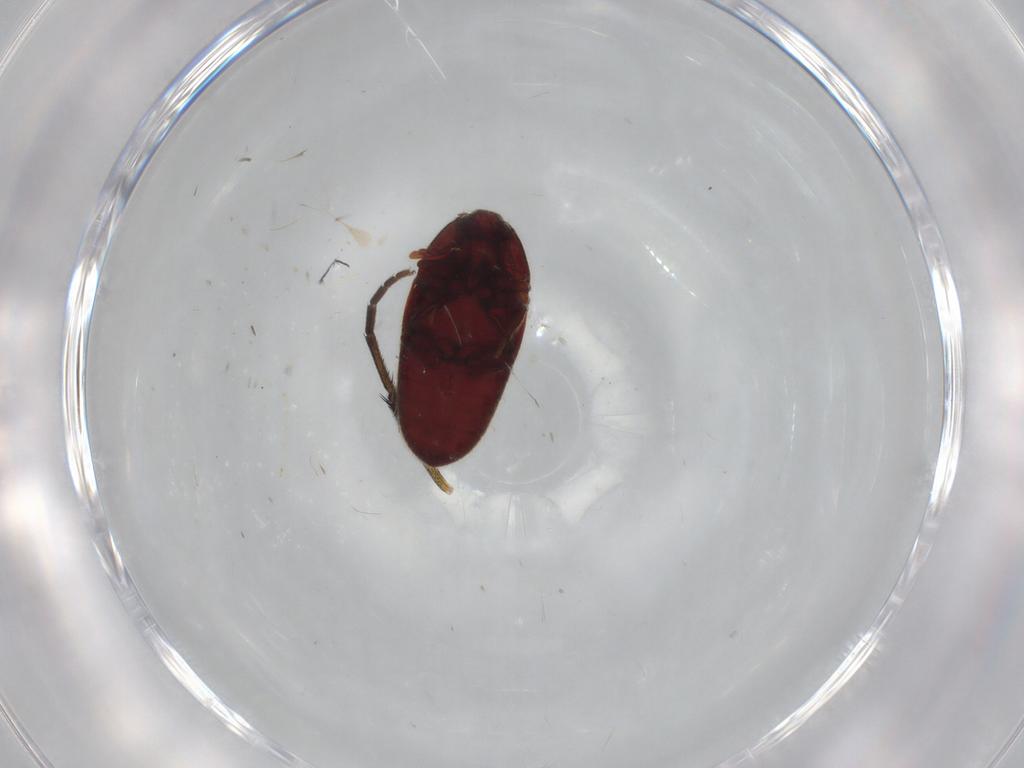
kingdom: Animalia
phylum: Arthropoda
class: Insecta
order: Coleoptera
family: Throscidae
